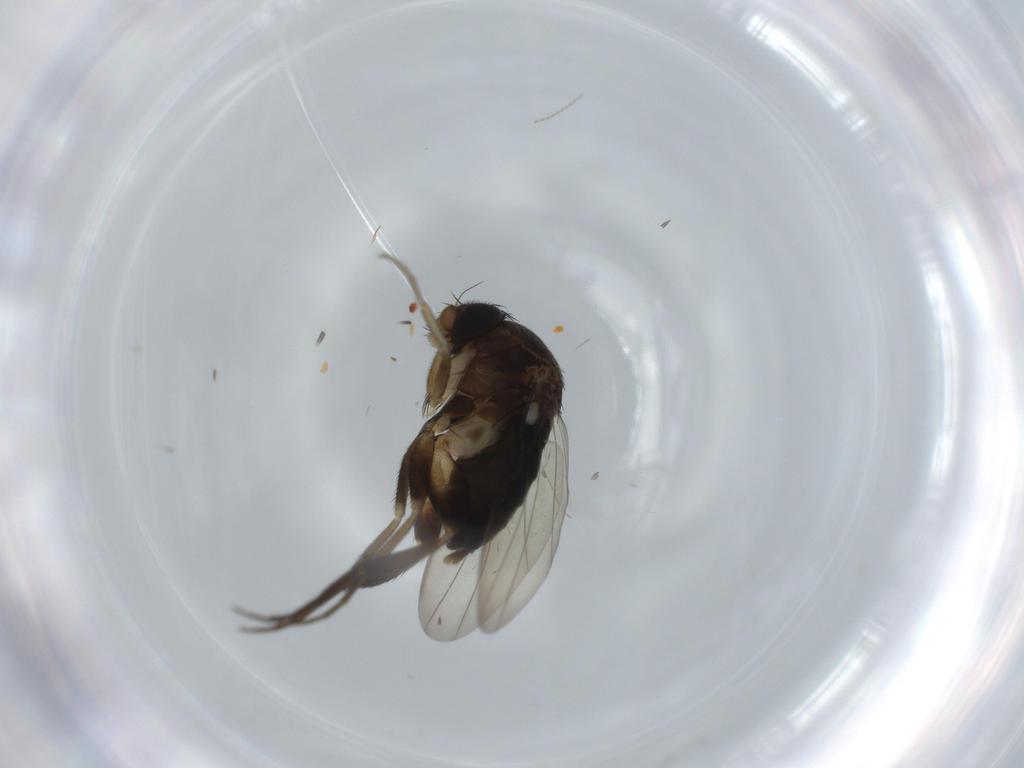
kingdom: Animalia
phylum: Arthropoda
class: Insecta
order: Diptera
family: Phoridae
